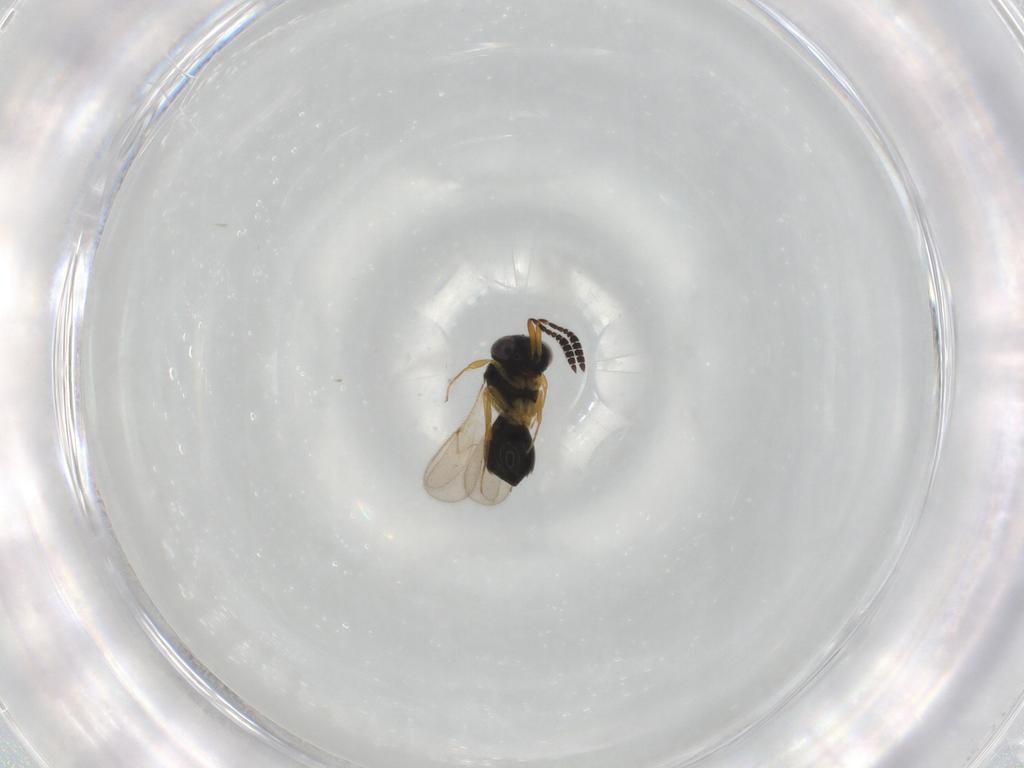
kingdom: Animalia
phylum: Arthropoda
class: Insecta
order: Hymenoptera
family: Scelionidae
